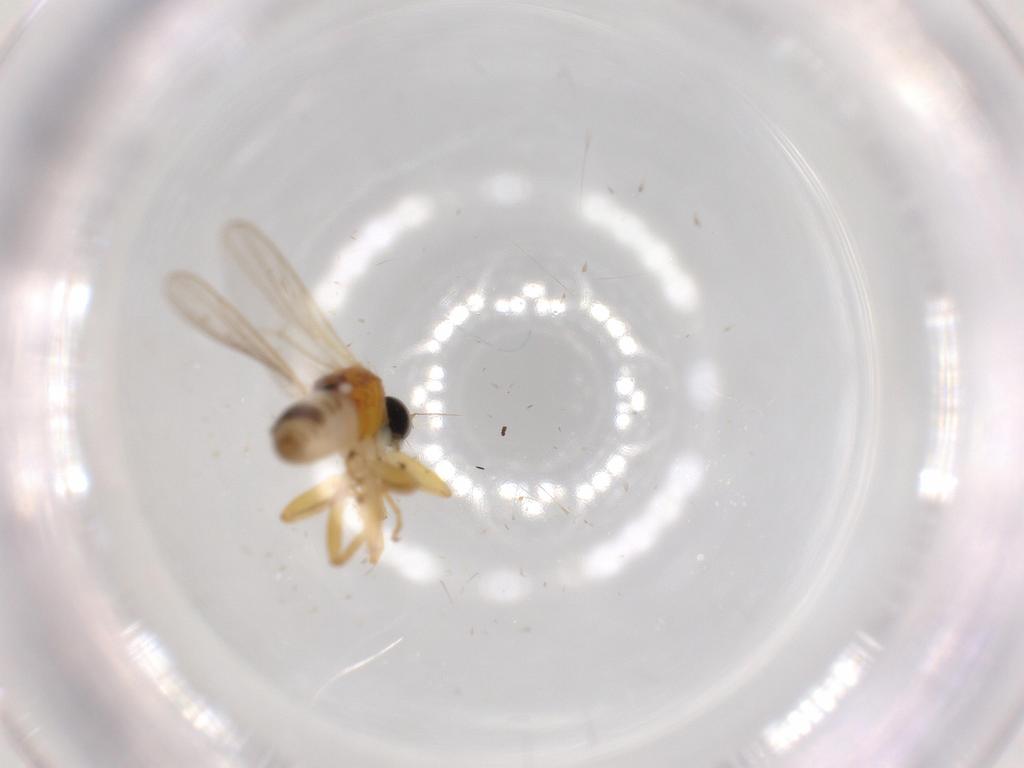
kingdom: Animalia
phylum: Arthropoda
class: Insecta
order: Diptera
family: Hybotidae
